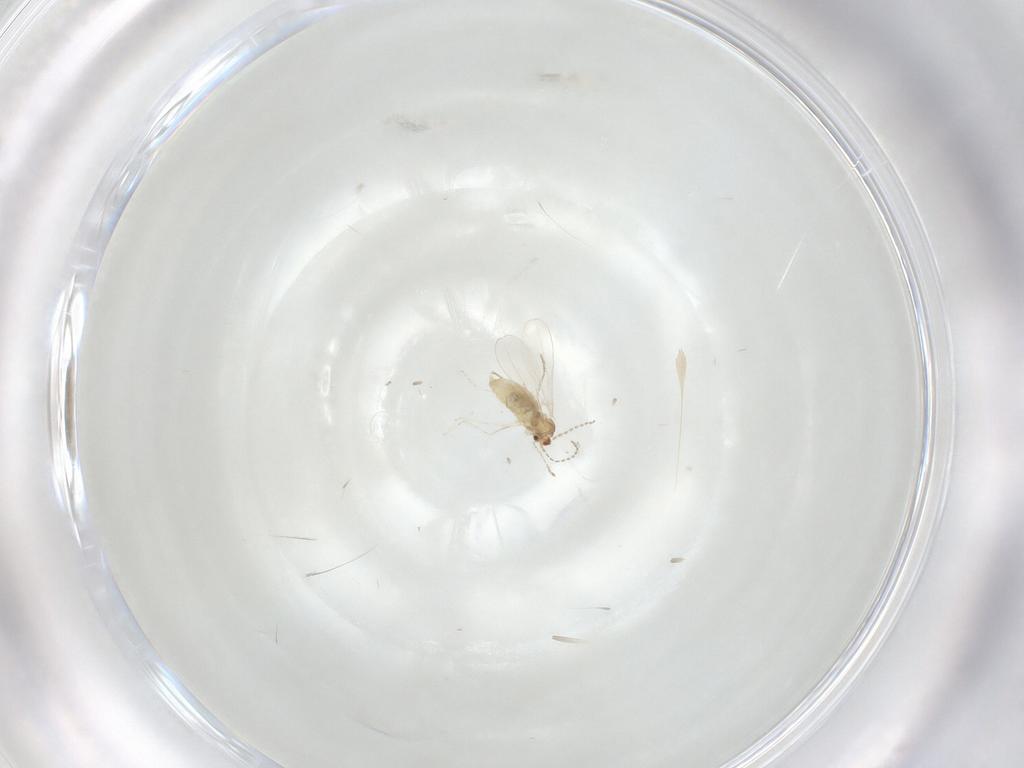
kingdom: Animalia
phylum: Arthropoda
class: Insecta
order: Diptera
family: Cecidomyiidae
